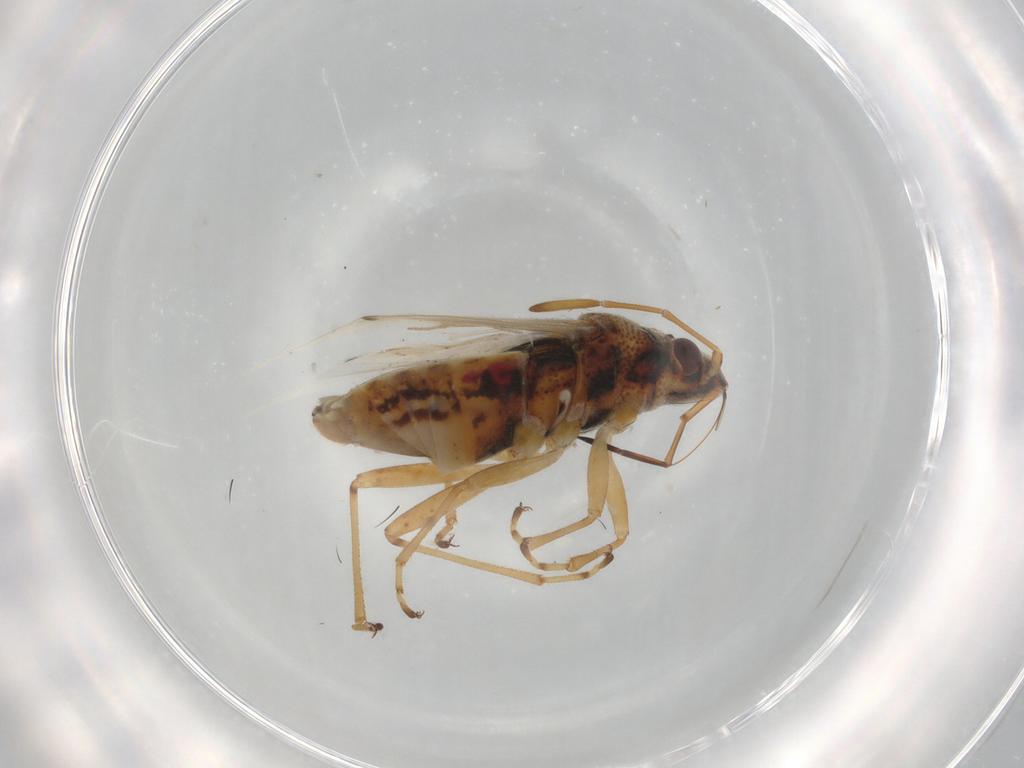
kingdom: Animalia
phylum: Arthropoda
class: Insecta
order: Hemiptera
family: Lygaeidae
